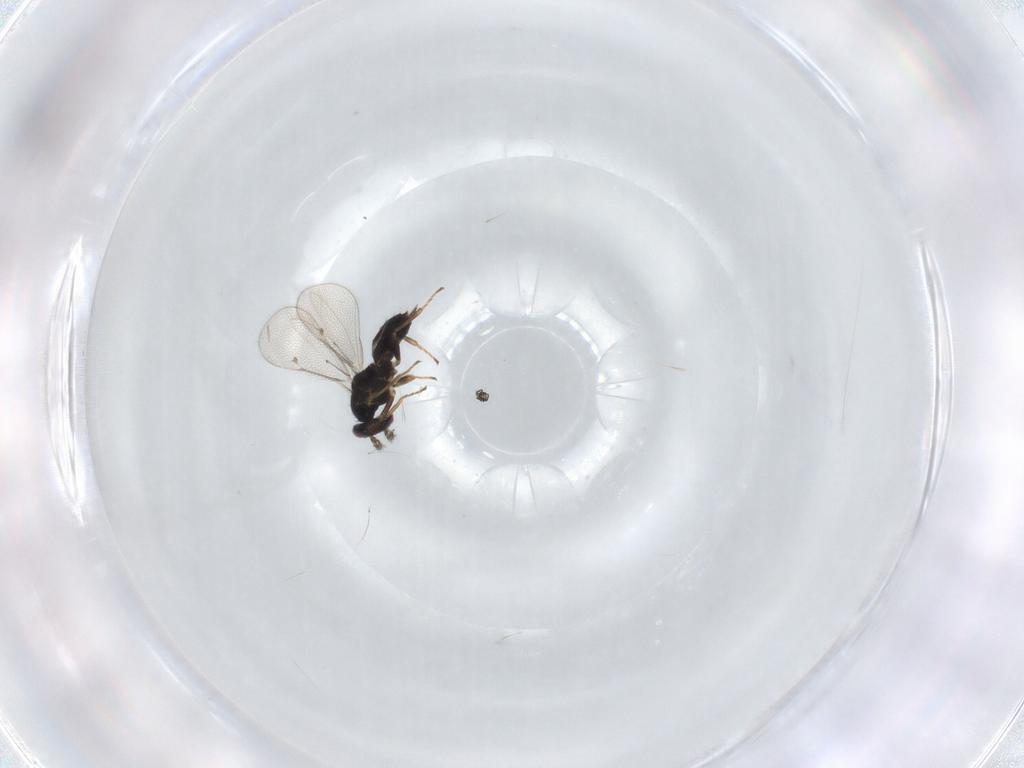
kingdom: Animalia
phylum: Arthropoda
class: Insecta
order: Hymenoptera
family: Eulophidae
